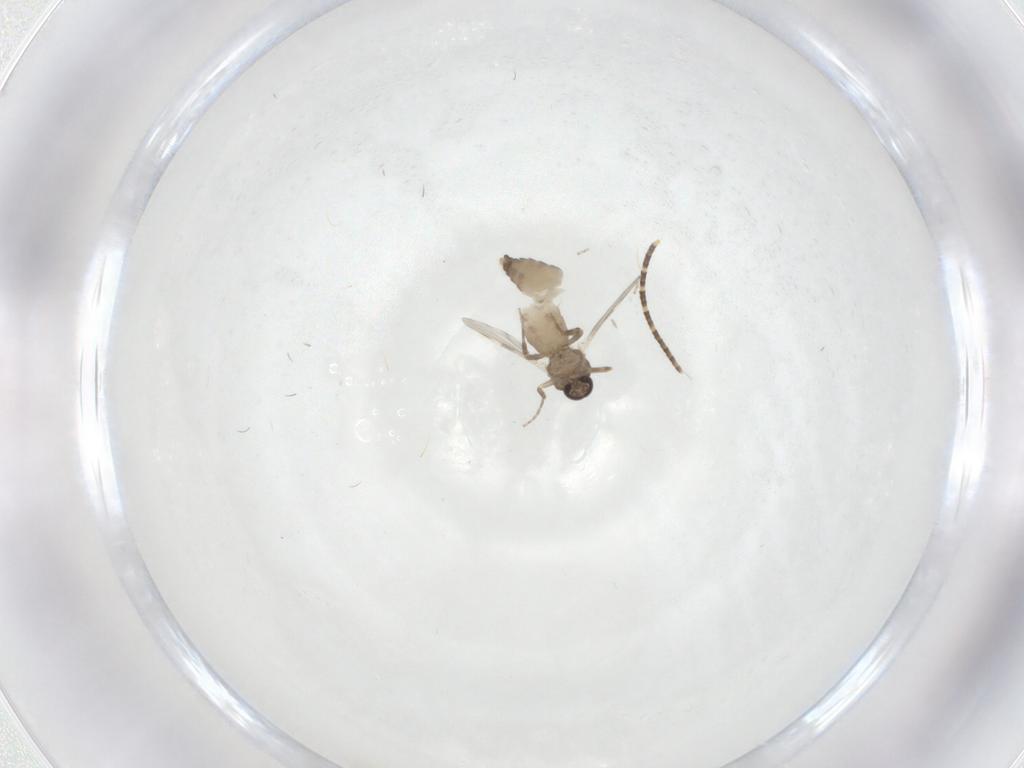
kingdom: Animalia
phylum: Arthropoda
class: Insecta
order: Diptera
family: Ceratopogonidae
